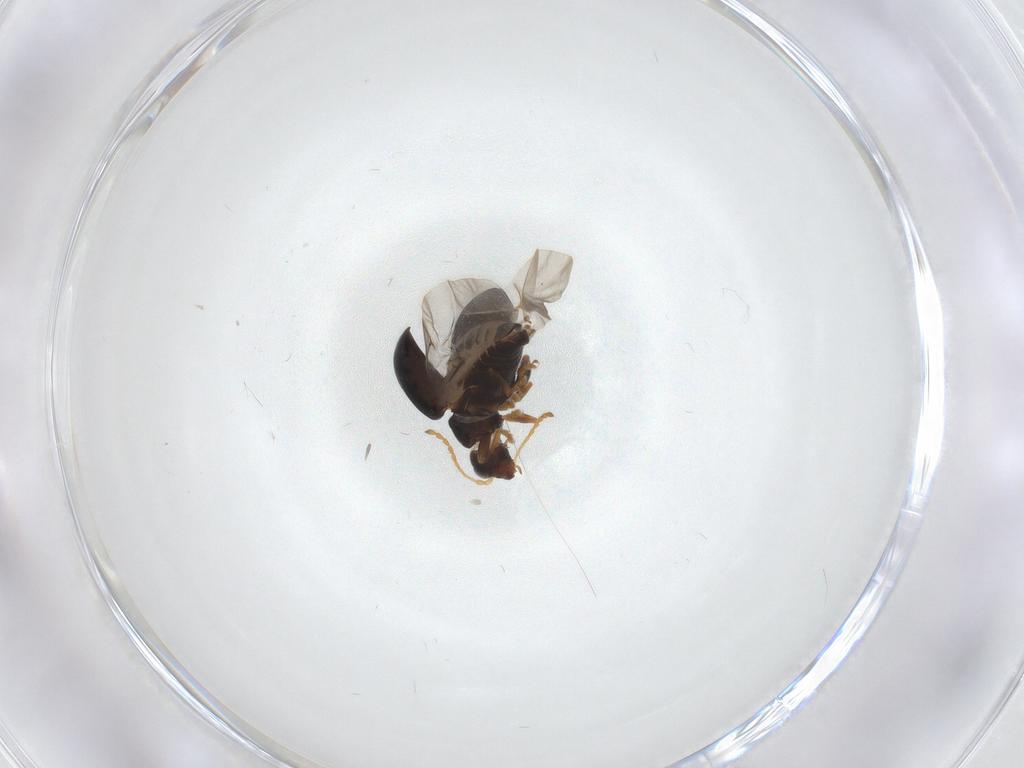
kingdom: Animalia
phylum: Arthropoda
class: Insecta
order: Coleoptera
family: Chrysomelidae
